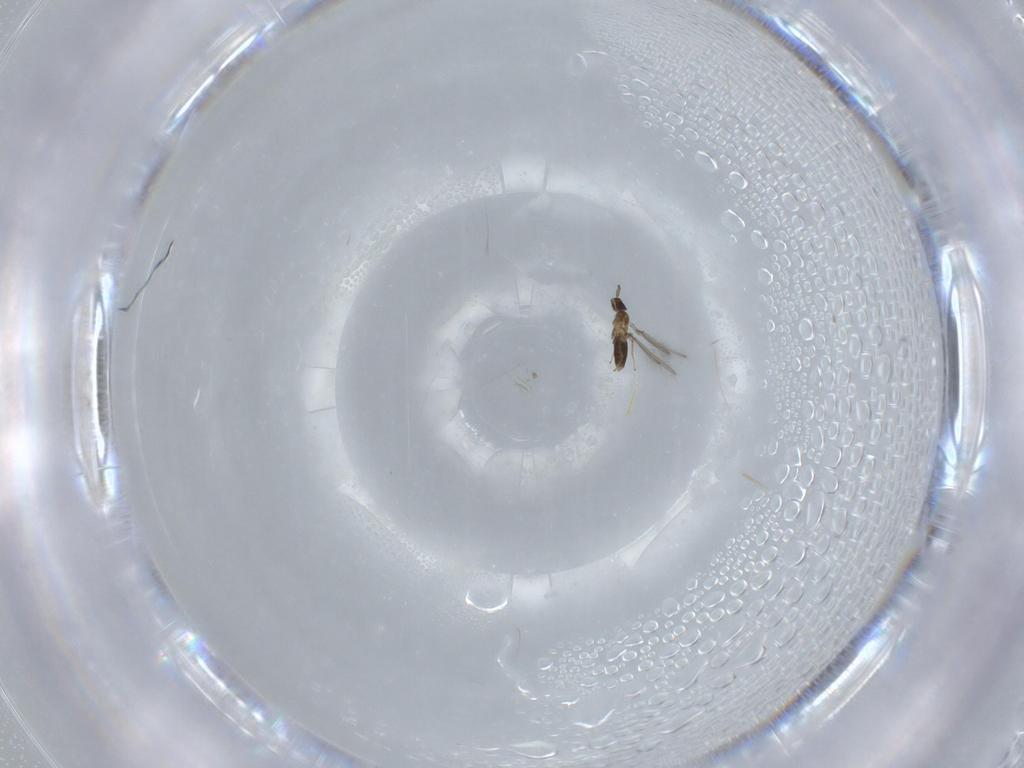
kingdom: Animalia
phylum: Arthropoda
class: Insecta
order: Hymenoptera
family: Mymaridae
